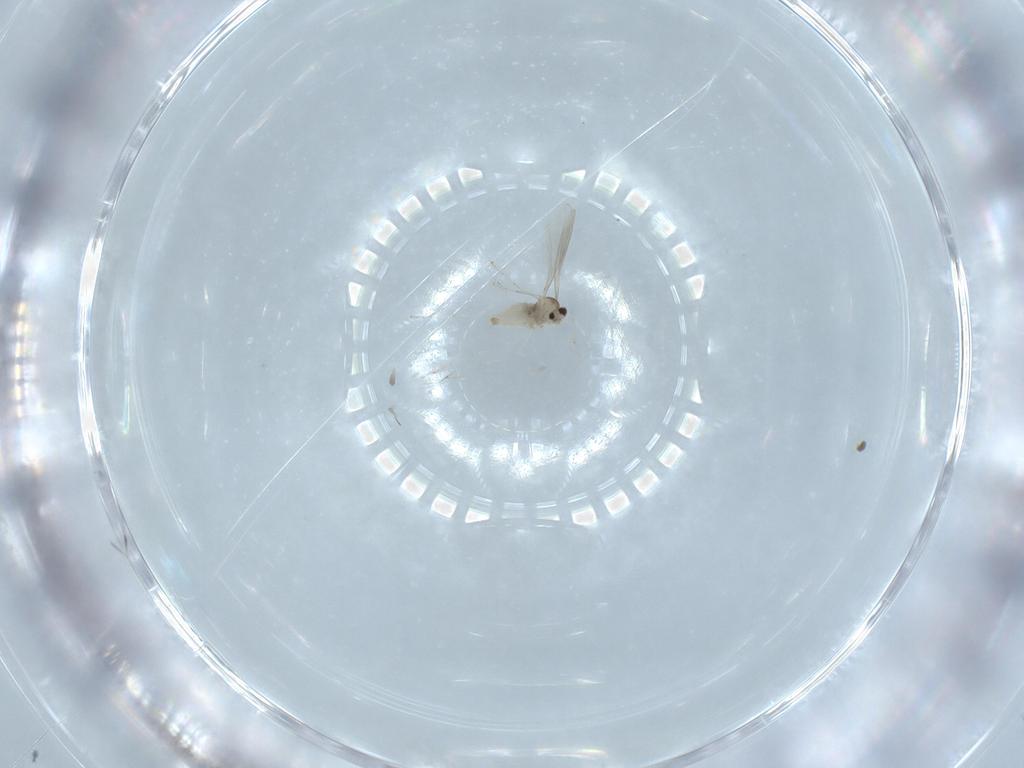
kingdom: Animalia
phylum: Arthropoda
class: Insecta
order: Diptera
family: Cecidomyiidae
